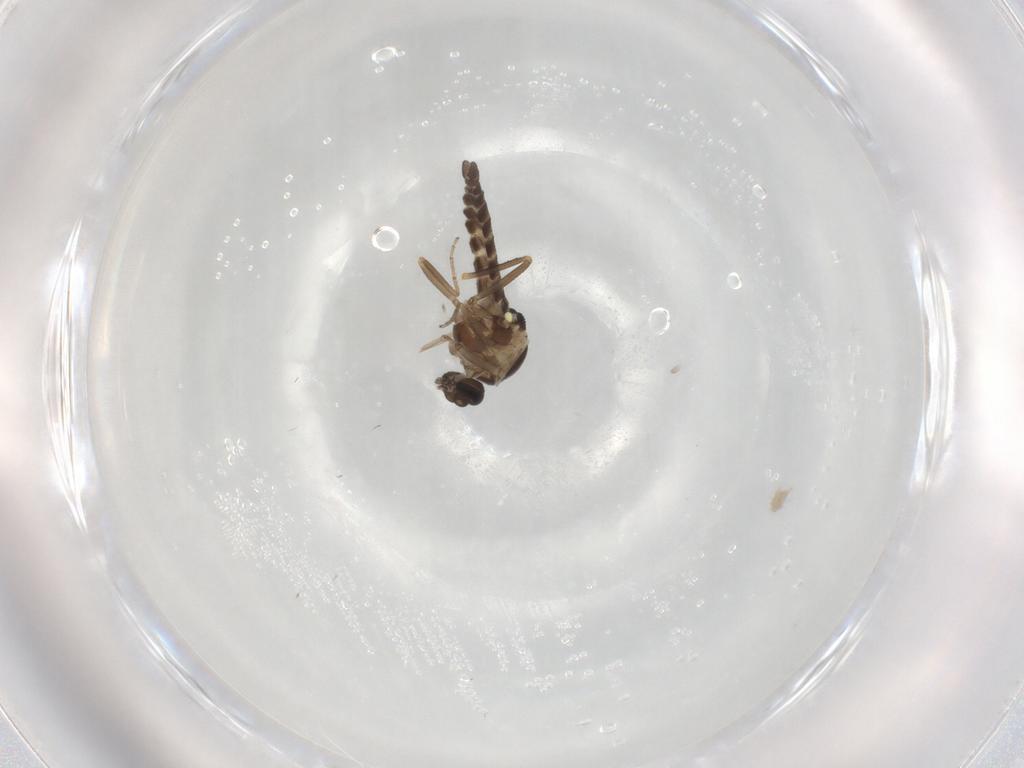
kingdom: Animalia
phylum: Arthropoda
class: Insecta
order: Diptera
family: Ceratopogonidae
